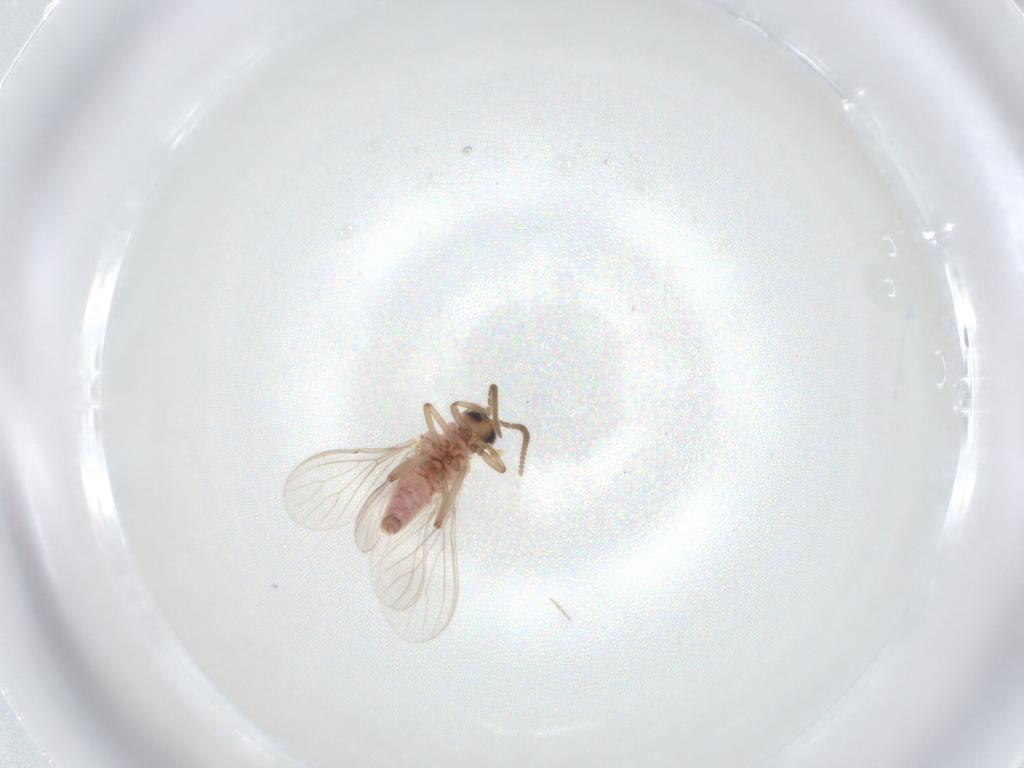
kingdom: Animalia
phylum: Arthropoda
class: Insecta
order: Neuroptera
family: Coniopterygidae
